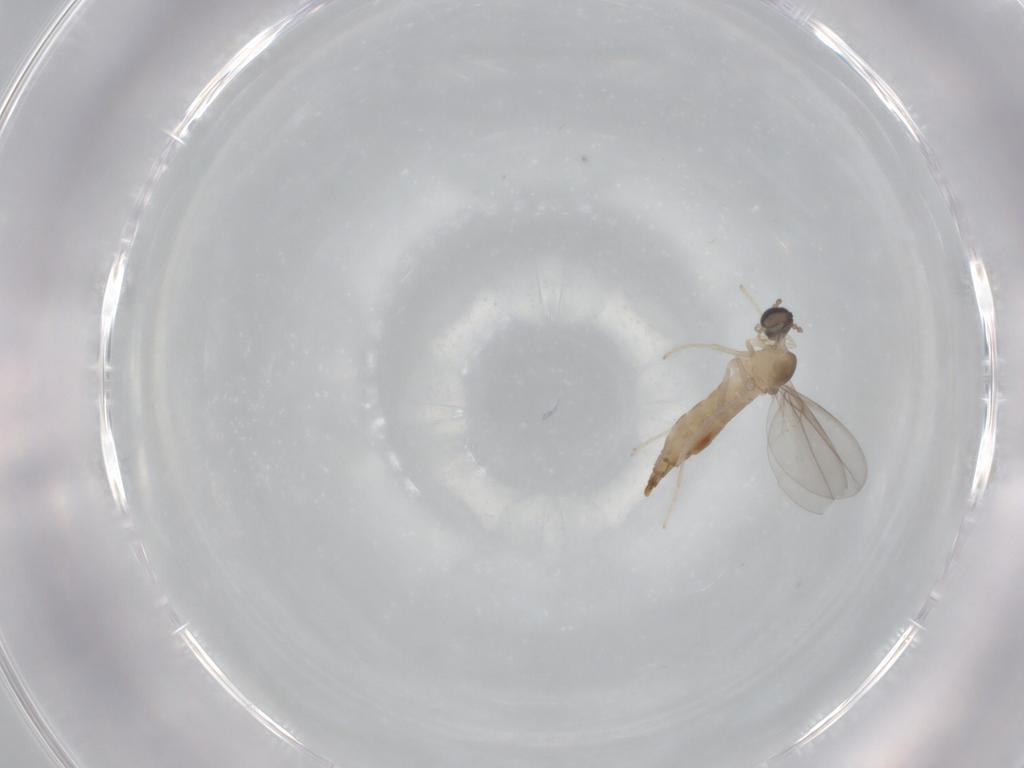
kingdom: Animalia
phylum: Arthropoda
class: Insecta
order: Diptera
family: Cecidomyiidae
